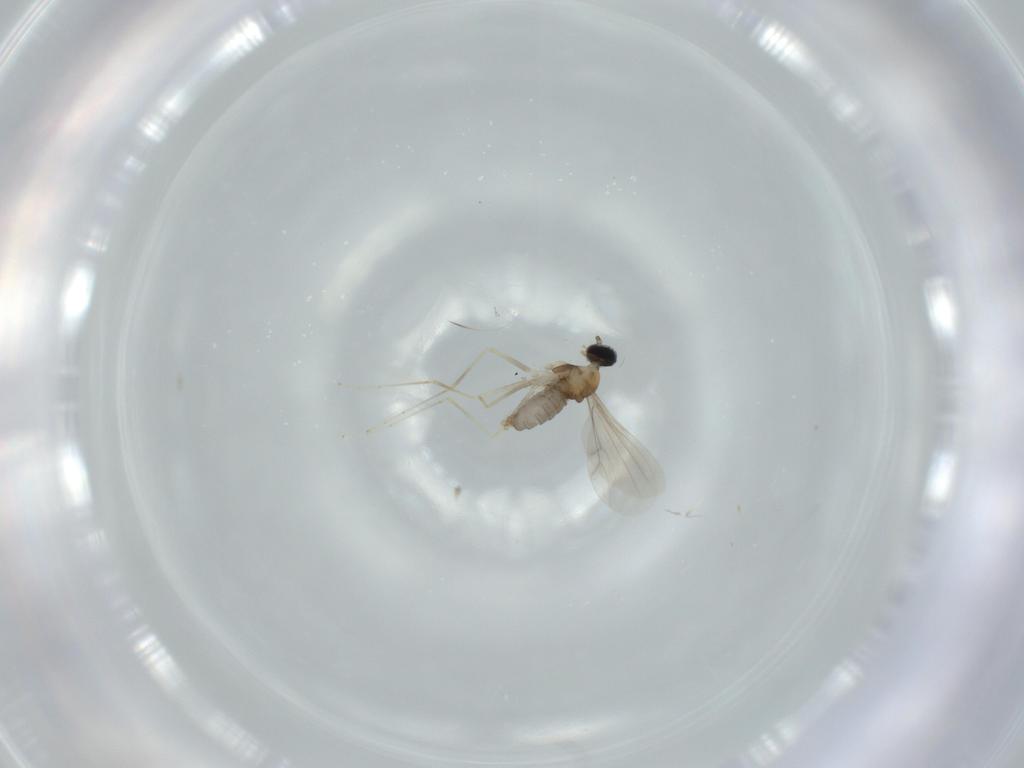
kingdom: Animalia
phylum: Arthropoda
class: Insecta
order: Diptera
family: Cecidomyiidae
